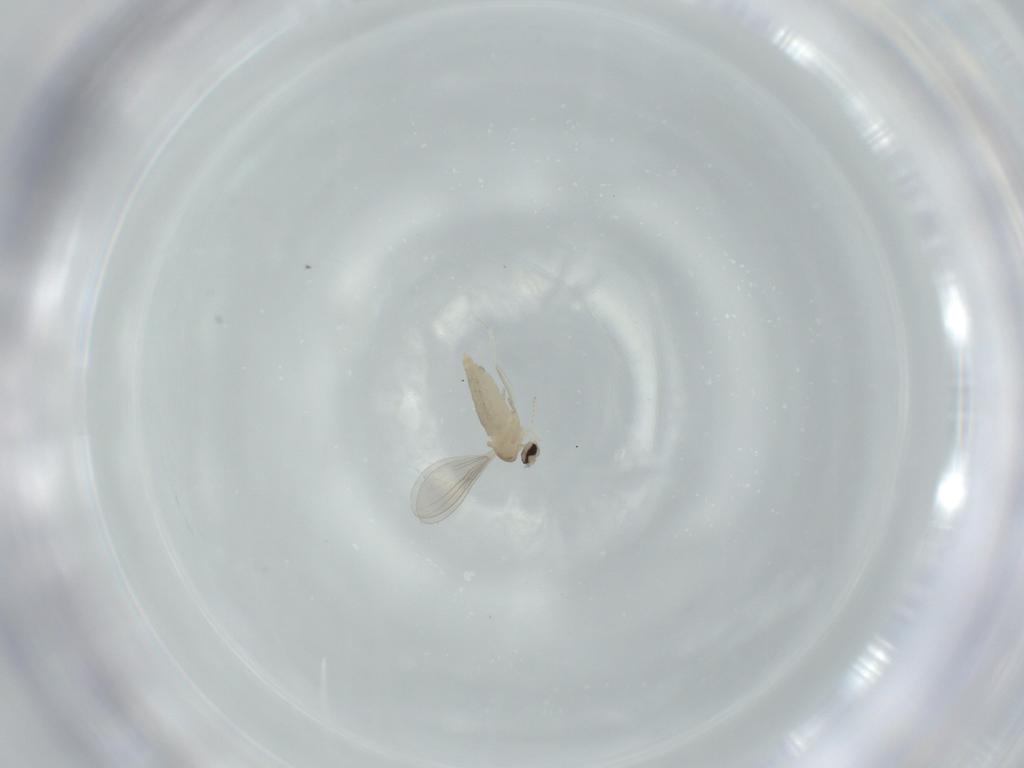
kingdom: Animalia
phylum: Arthropoda
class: Insecta
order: Diptera
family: Cecidomyiidae
